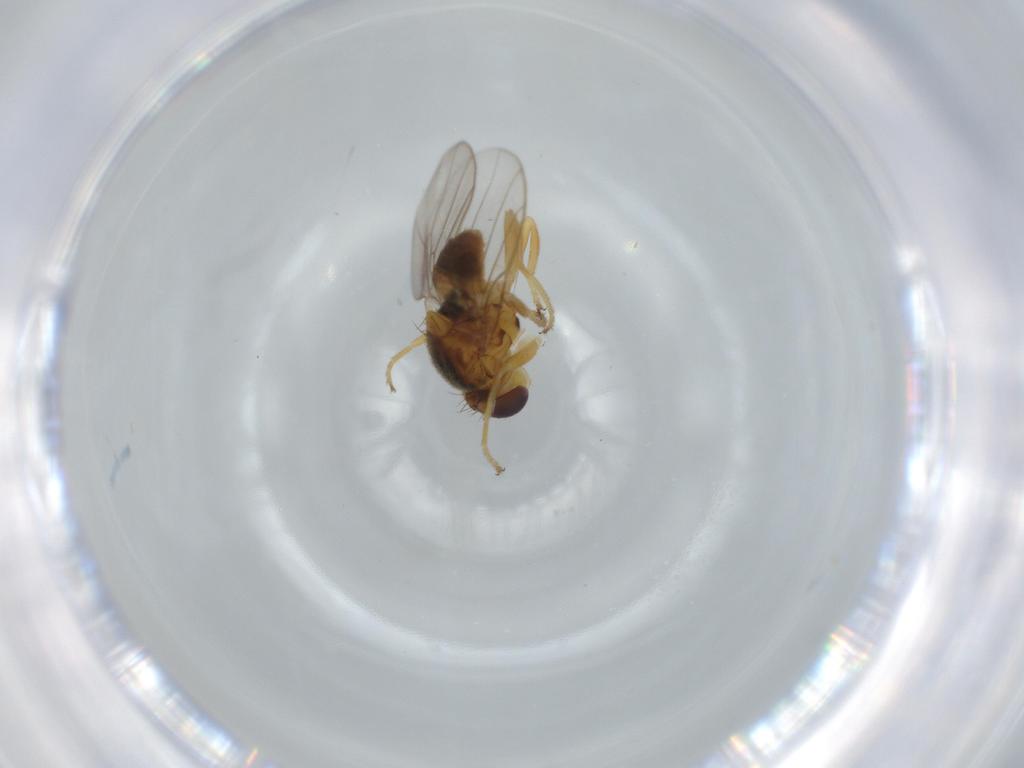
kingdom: Animalia
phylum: Arthropoda
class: Insecta
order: Diptera
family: Chloropidae
